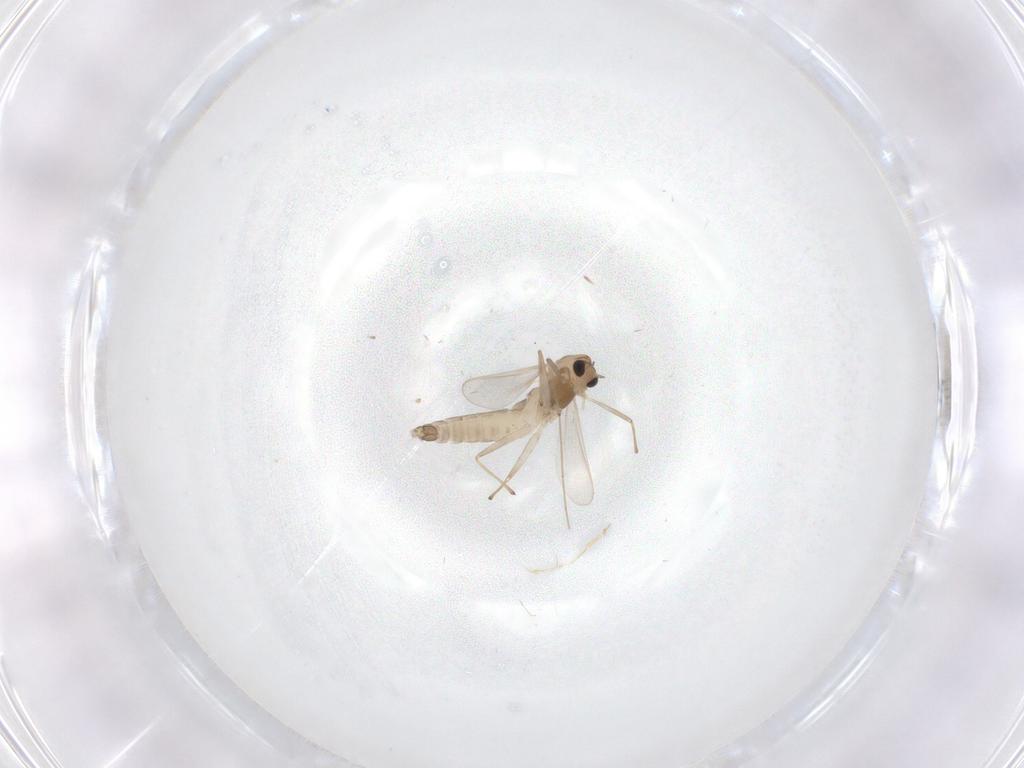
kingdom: Animalia
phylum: Arthropoda
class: Insecta
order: Diptera
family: Chironomidae
